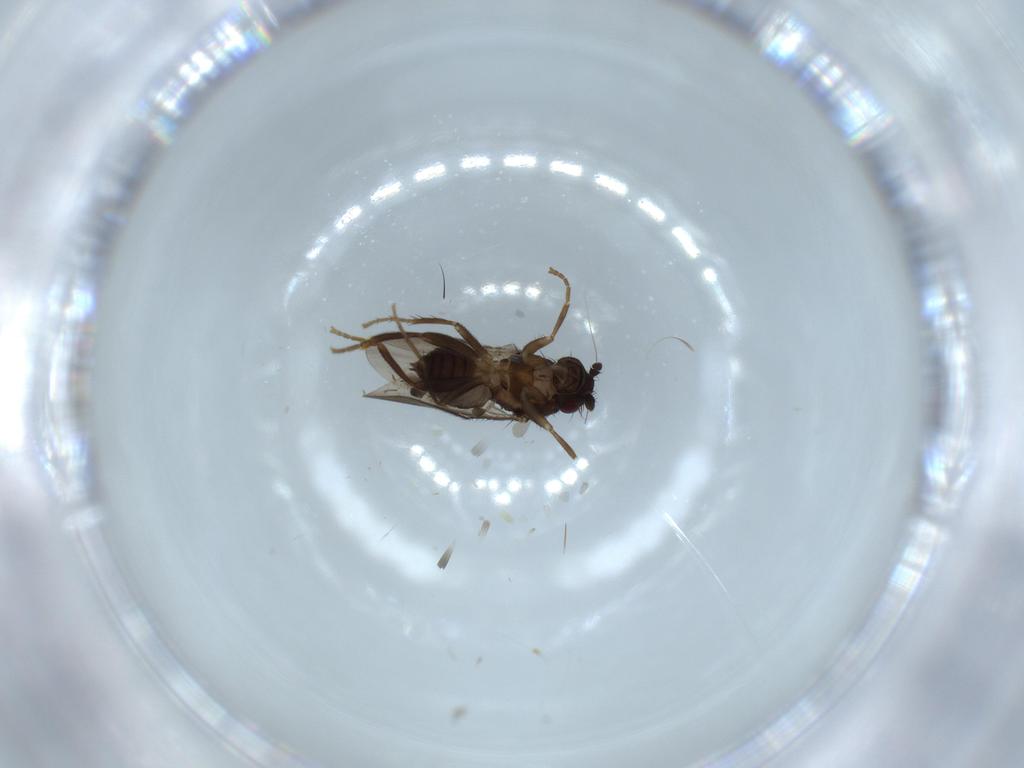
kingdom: Animalia
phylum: Arthropoda
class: Insecta
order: Diptera
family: Sphaeroceridae
